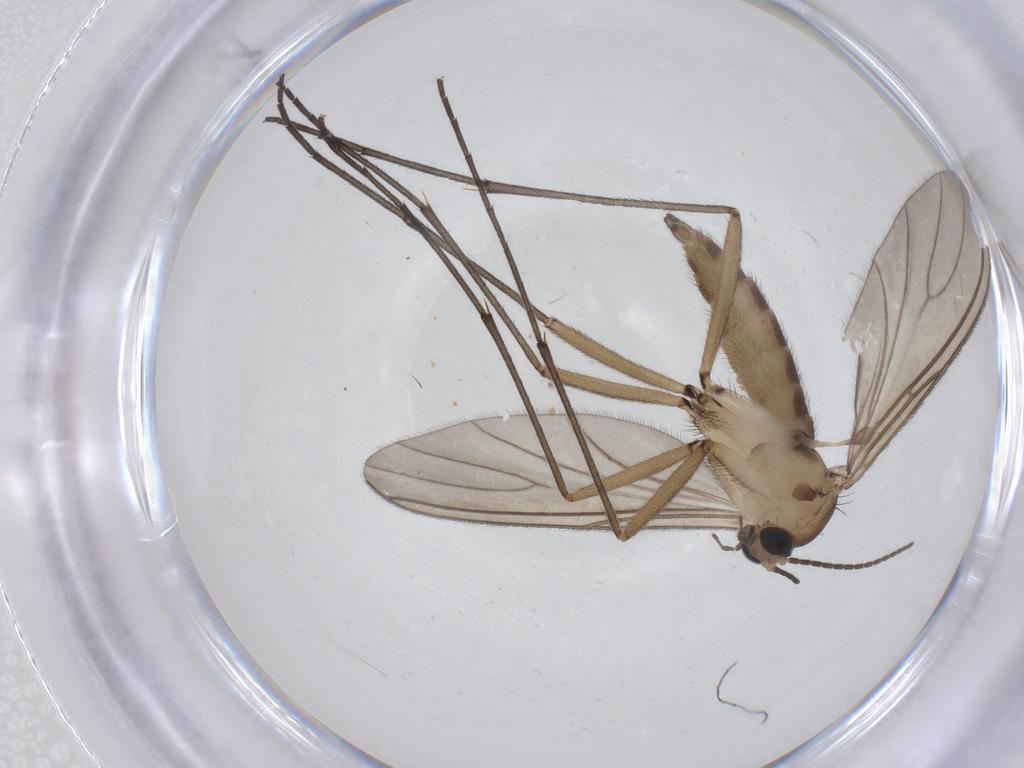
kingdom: Animalia
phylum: Arthropoda
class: Insecta
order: Diptera
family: Sciaridae
